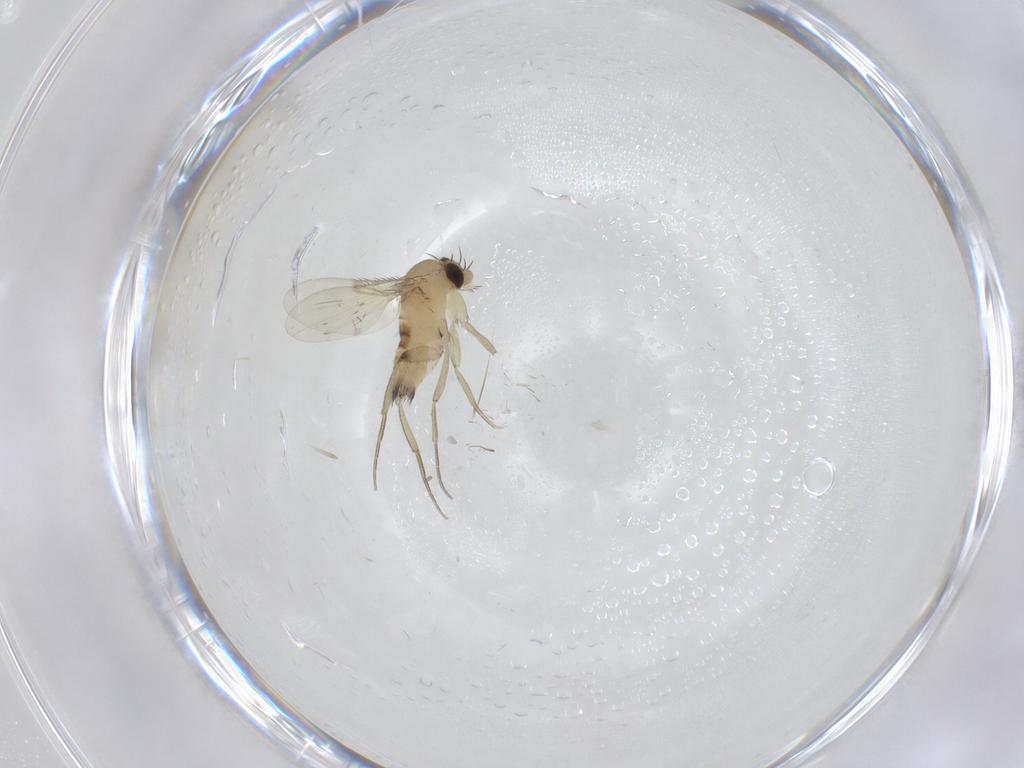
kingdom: Animalia
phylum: Arthropoda
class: Insecta
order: Diptera
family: Phoridae
